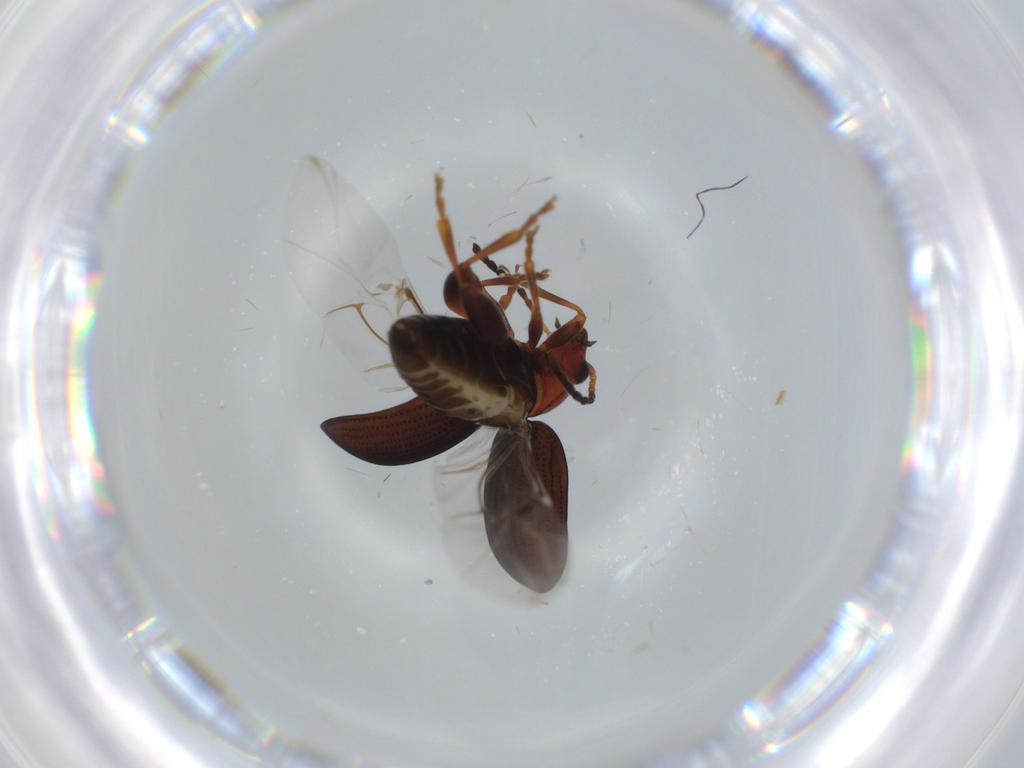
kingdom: Animalia
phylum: Arthropoda
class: Insecta
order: Coleoptera
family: Chrysomelidae
